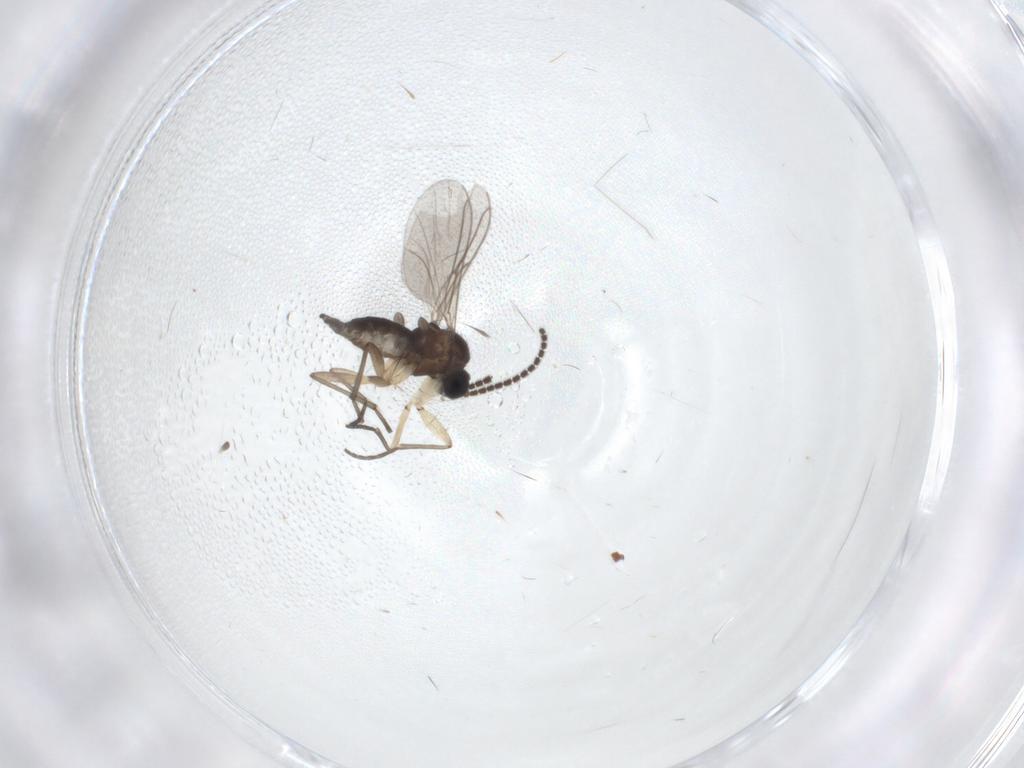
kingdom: Animalia
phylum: Arthropoda
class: Insecta
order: Diptera
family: Sciaridae
